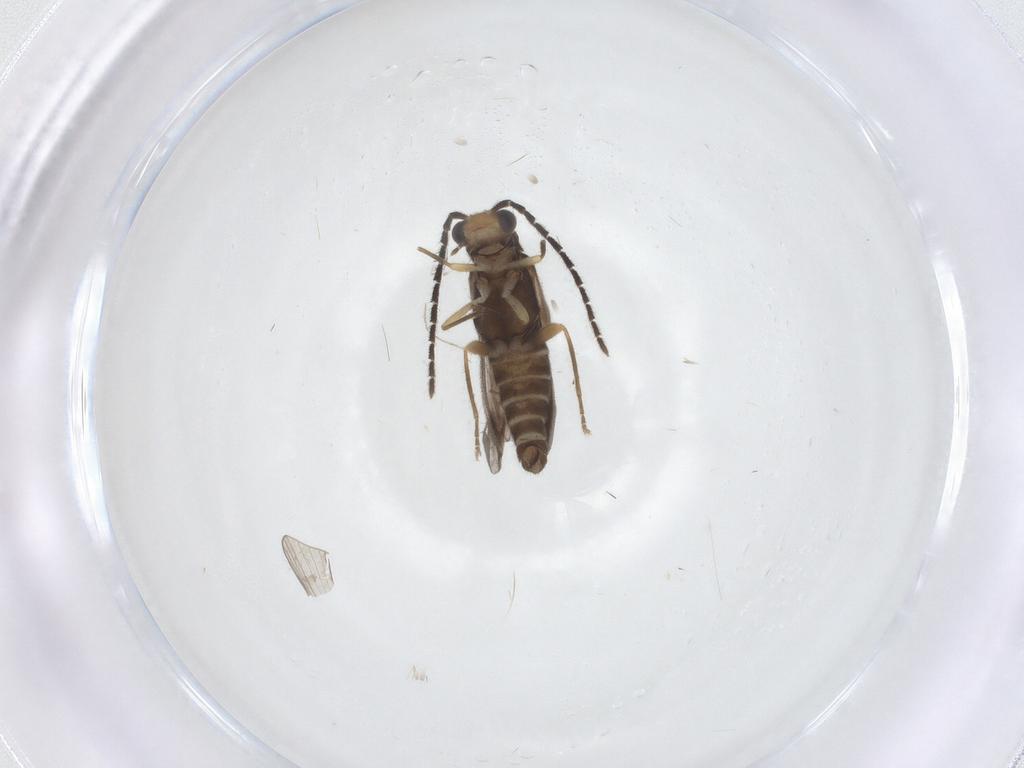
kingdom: Animalia
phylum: Arthropoda
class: Insecta
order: Coleoptera
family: Cantharidae
